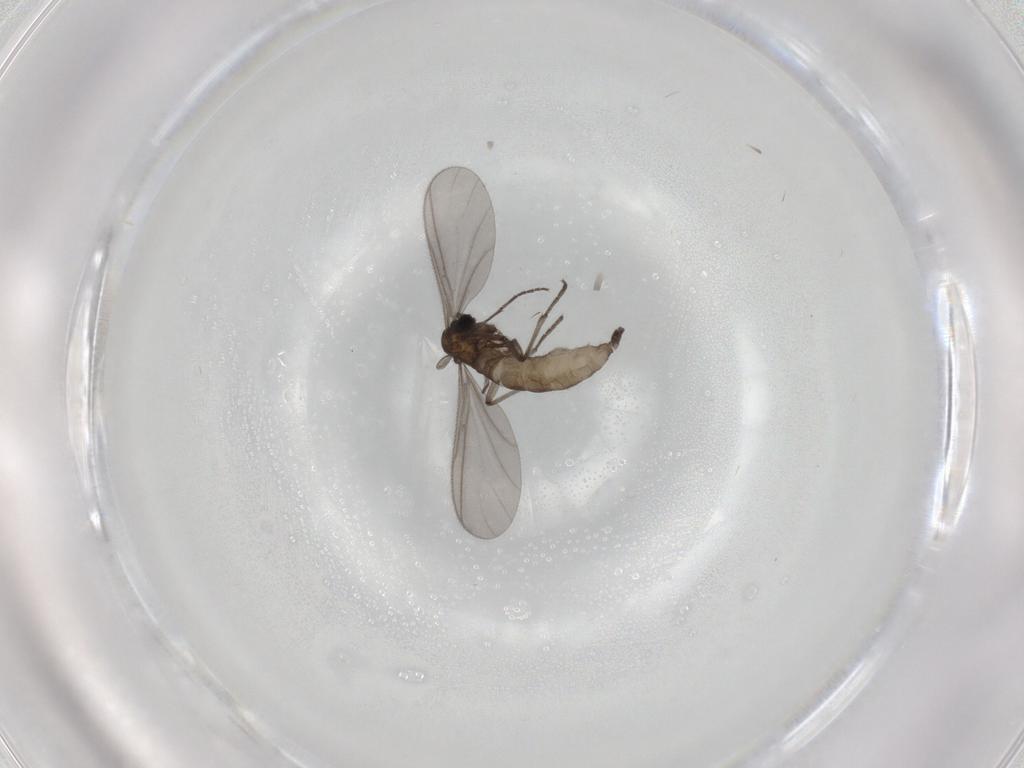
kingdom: Animalia
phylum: Arthropoda
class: Insecta
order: Diptera
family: Sciaridae
